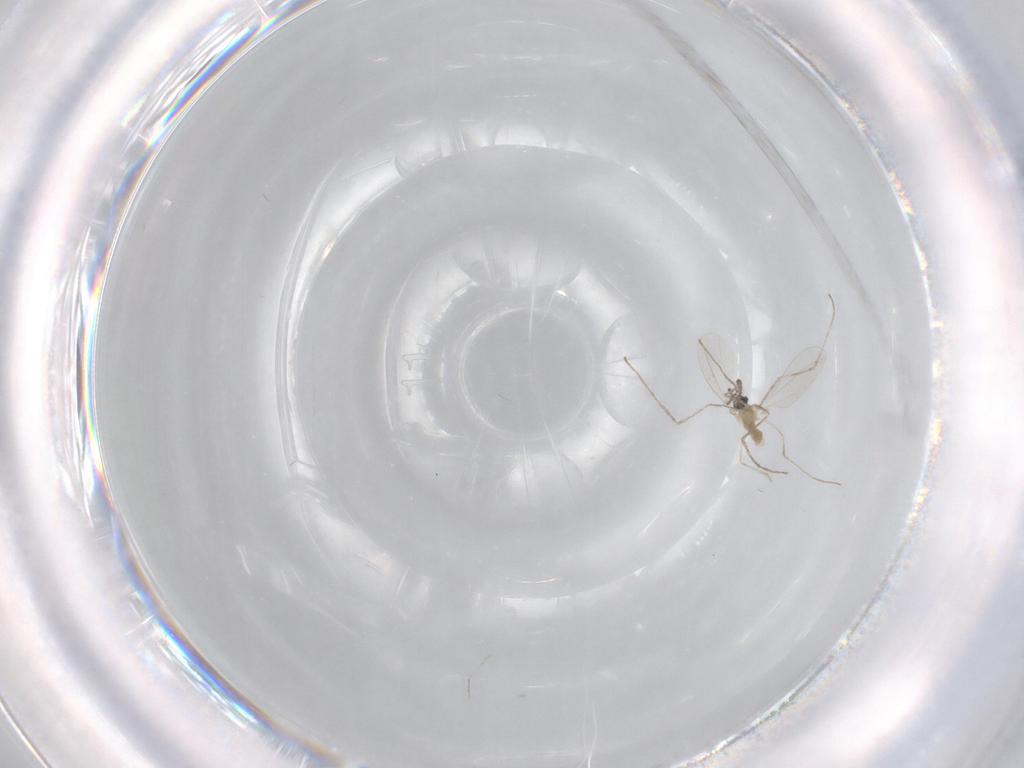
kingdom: Animalia
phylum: Arthropoda
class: Insecta
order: Diptera
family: Cecidomyiidae
